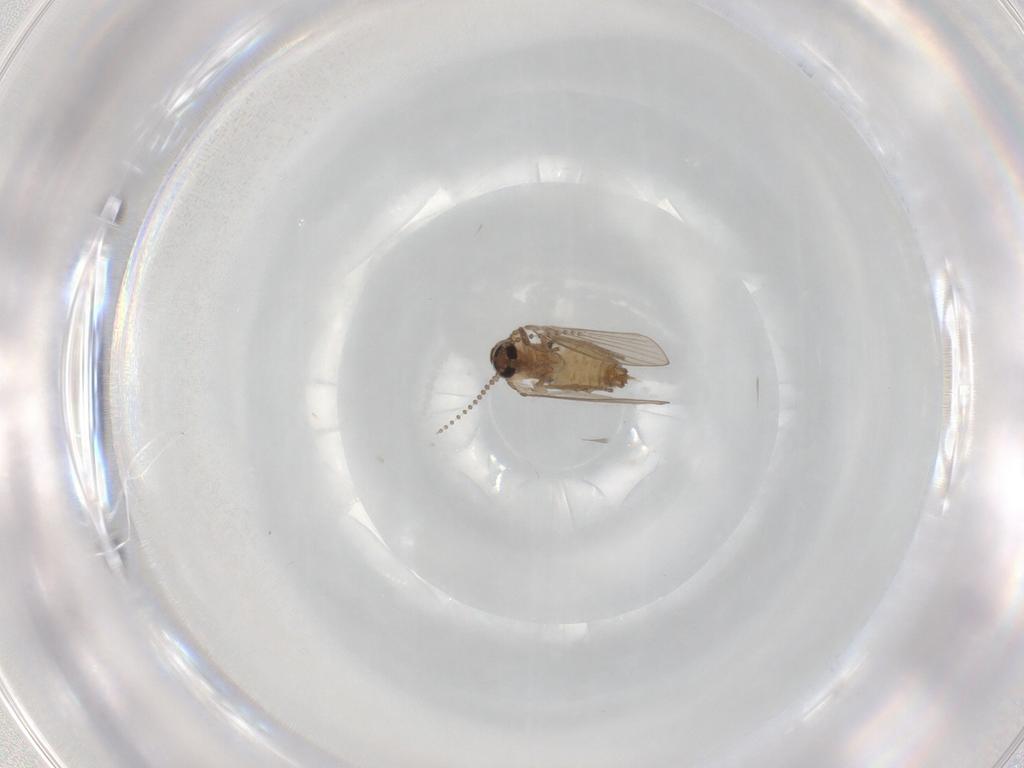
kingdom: Animalia
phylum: Arthropoda
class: Insecta
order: Diptera
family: Psychodidae
